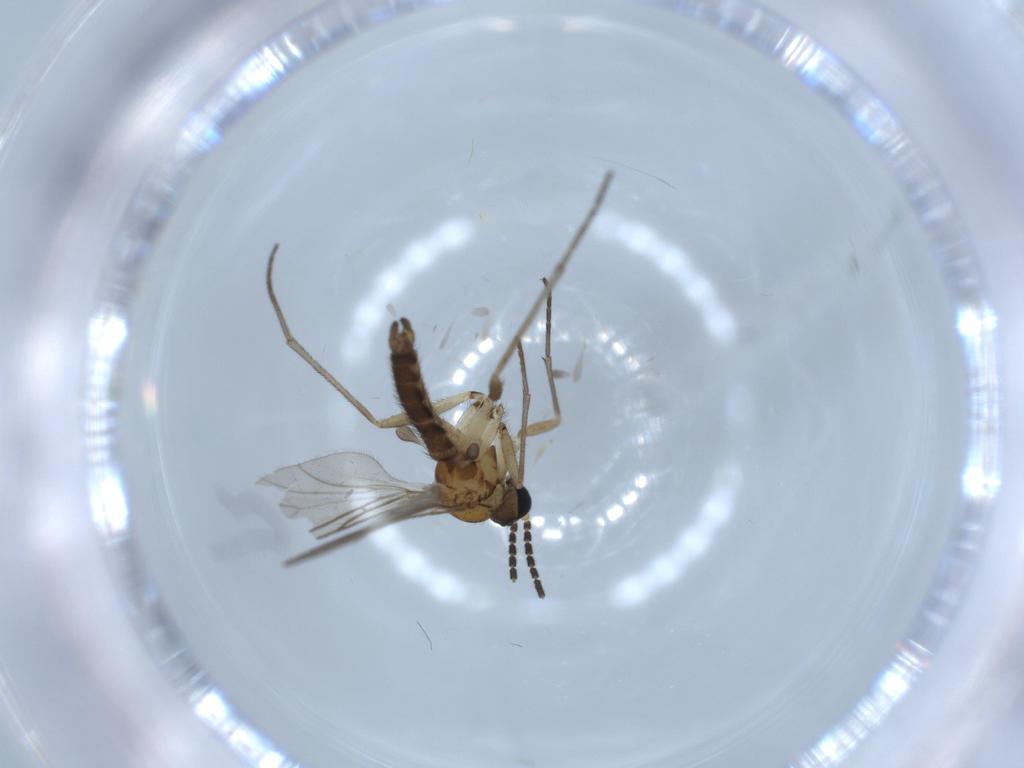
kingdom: Animalia
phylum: Arthropoda
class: Insecta
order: Diptera
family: Sciaridae
